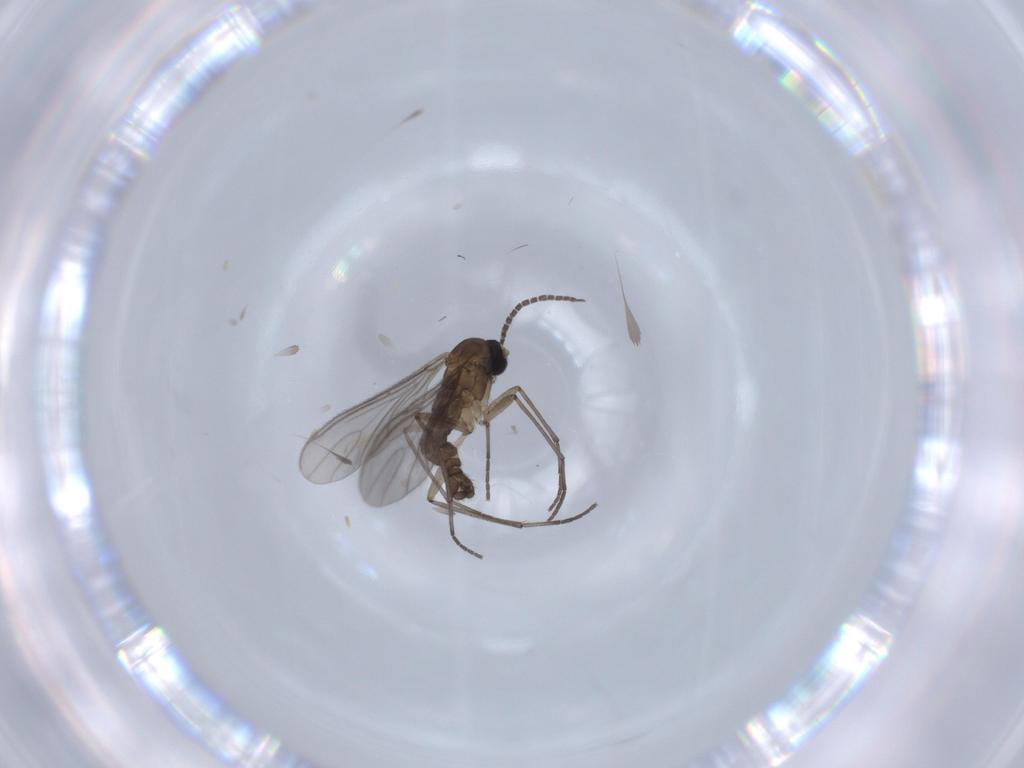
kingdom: Animalia
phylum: Arthropoda
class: Insecta
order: Diptera
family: Sciaridae
